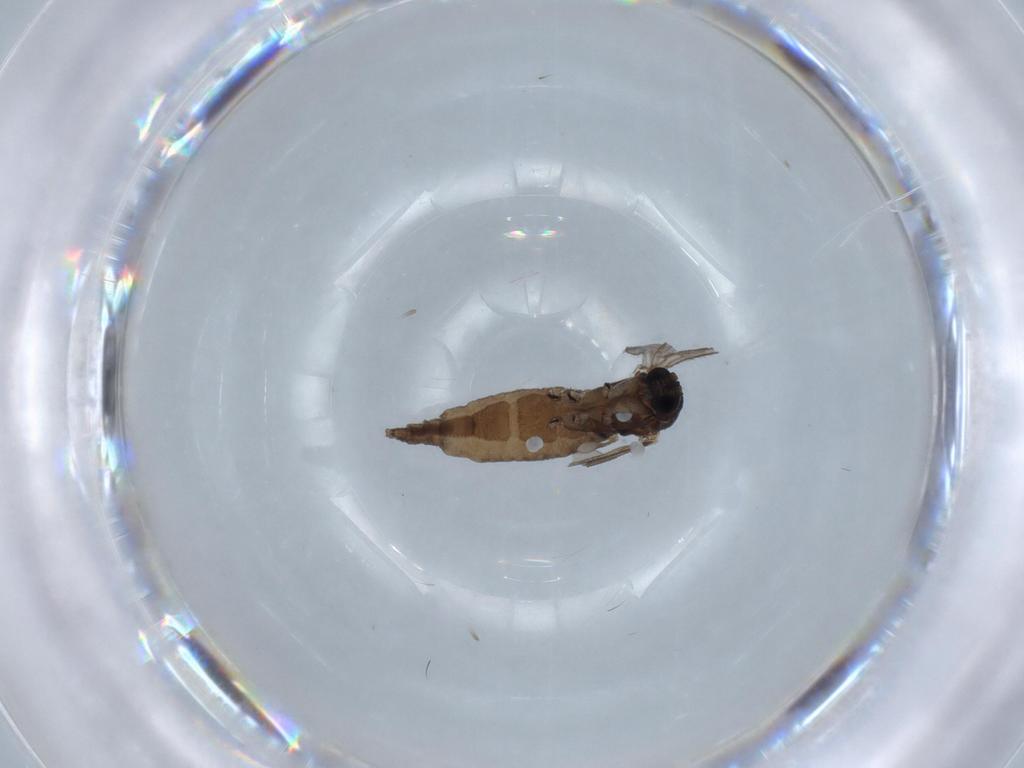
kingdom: Animalia
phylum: Arthropoda
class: Insecta
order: Diptera
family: Sciaridae
